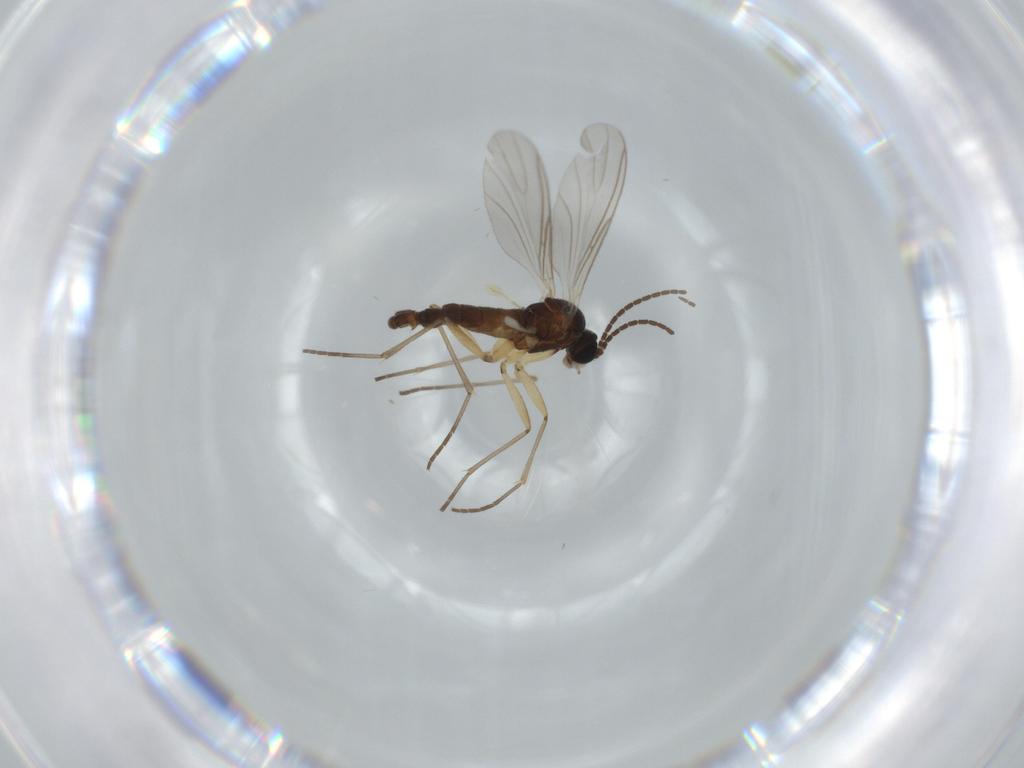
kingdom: Animalia
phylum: Arthropoda
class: Insecta
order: Diptera
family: Sciaridae
